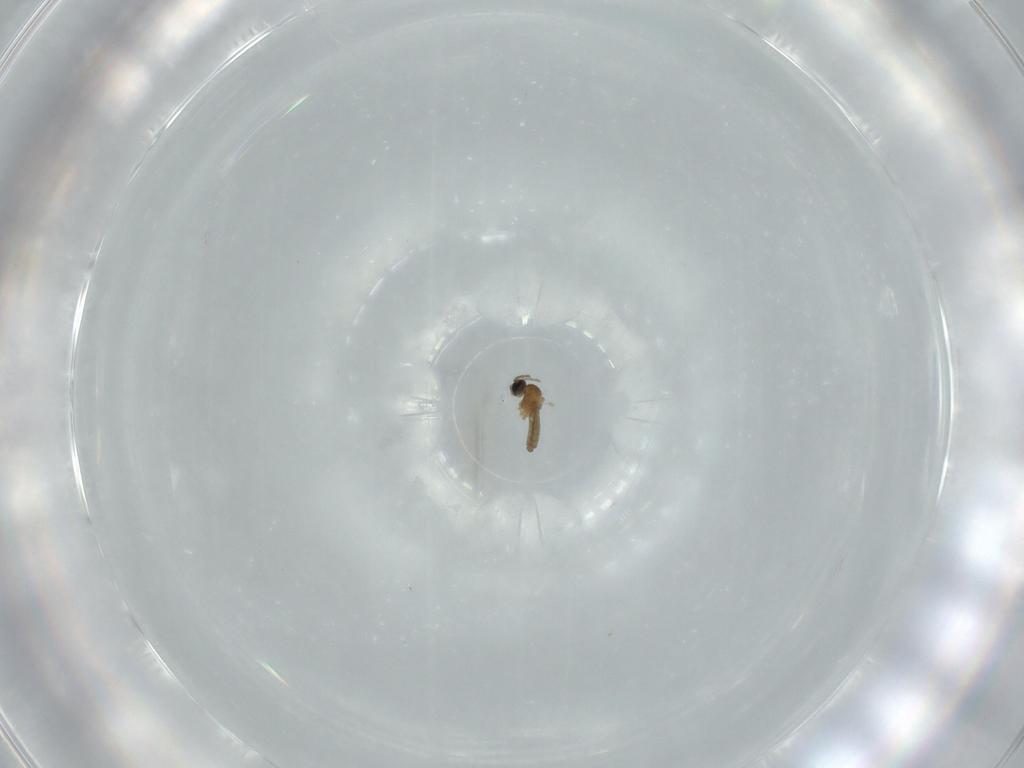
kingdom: Animalia
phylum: Arthropoda
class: Insecta
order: Diptera
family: Cecidomyiidae
